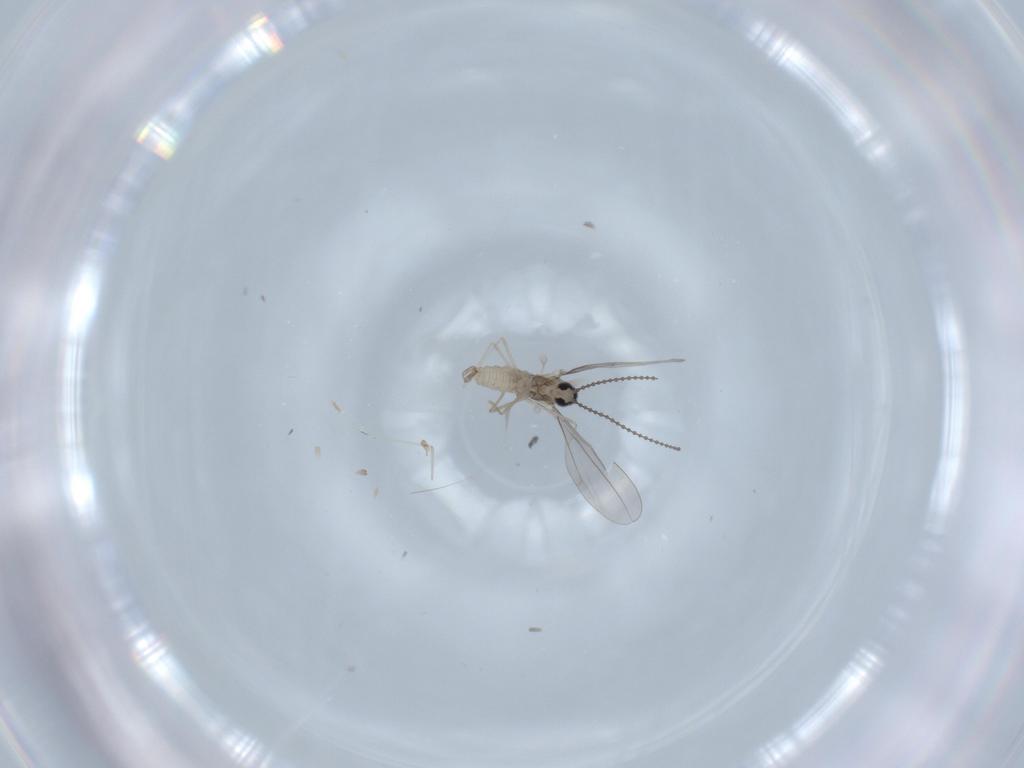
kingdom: Animalia
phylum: Arthropoda
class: Insecta
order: Diptera
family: Cecidomyiidae
